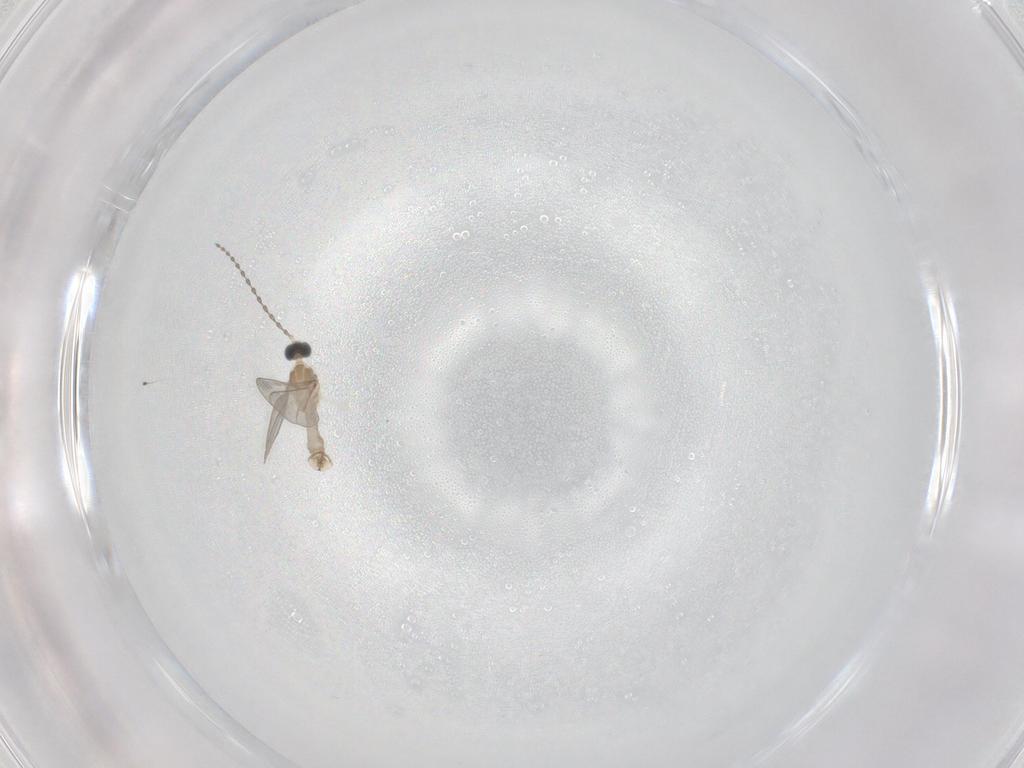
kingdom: Animalia
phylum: Arthropoda
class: Insecta
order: Diptera
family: Cecidomyiidae
